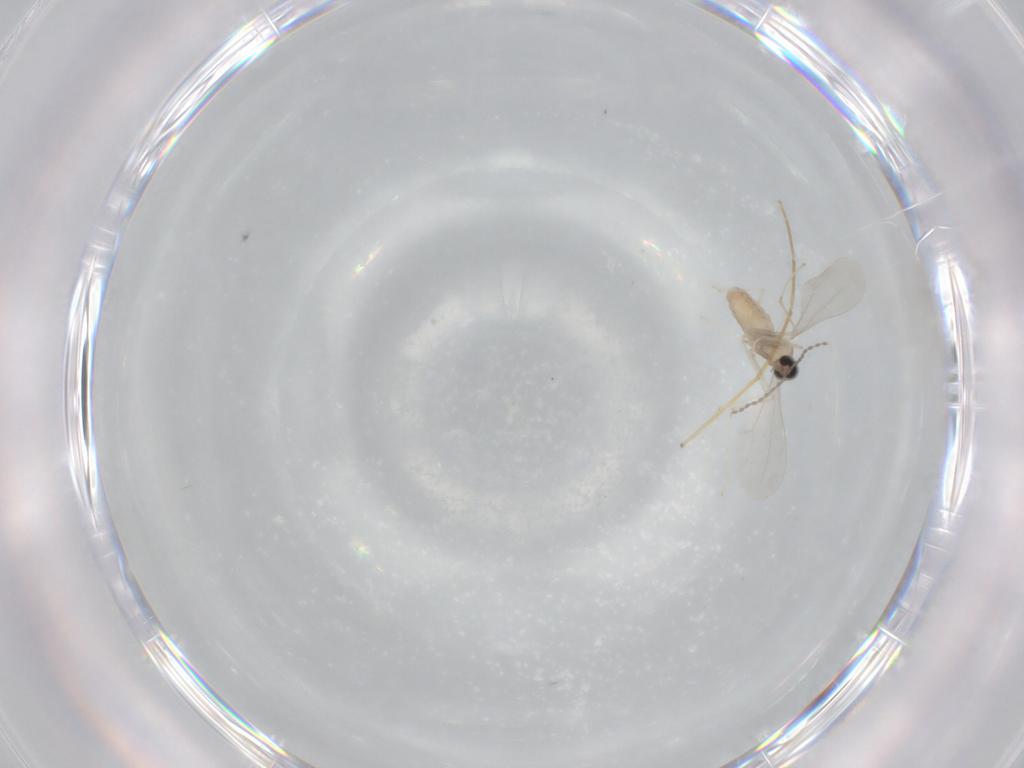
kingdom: Animalia
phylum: Arthropoda
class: Insecta
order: Diptera
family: Cecidomyiidae
